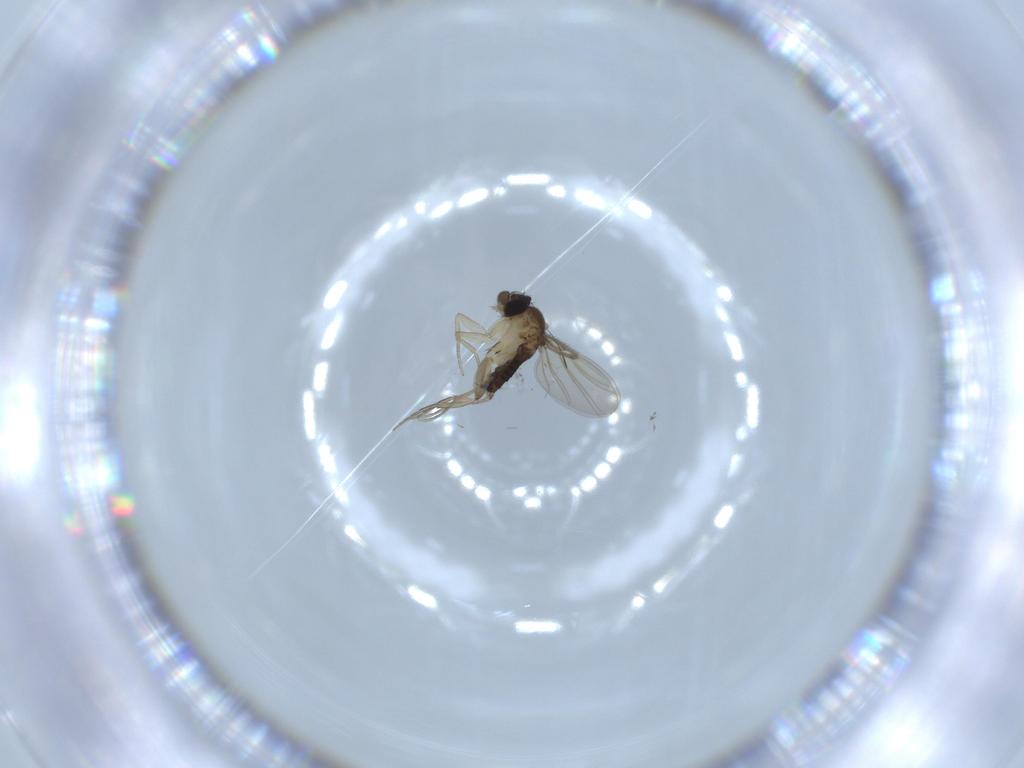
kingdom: Animalia
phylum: Arthropoda
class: Insecta
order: Diptera
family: Phoridae
